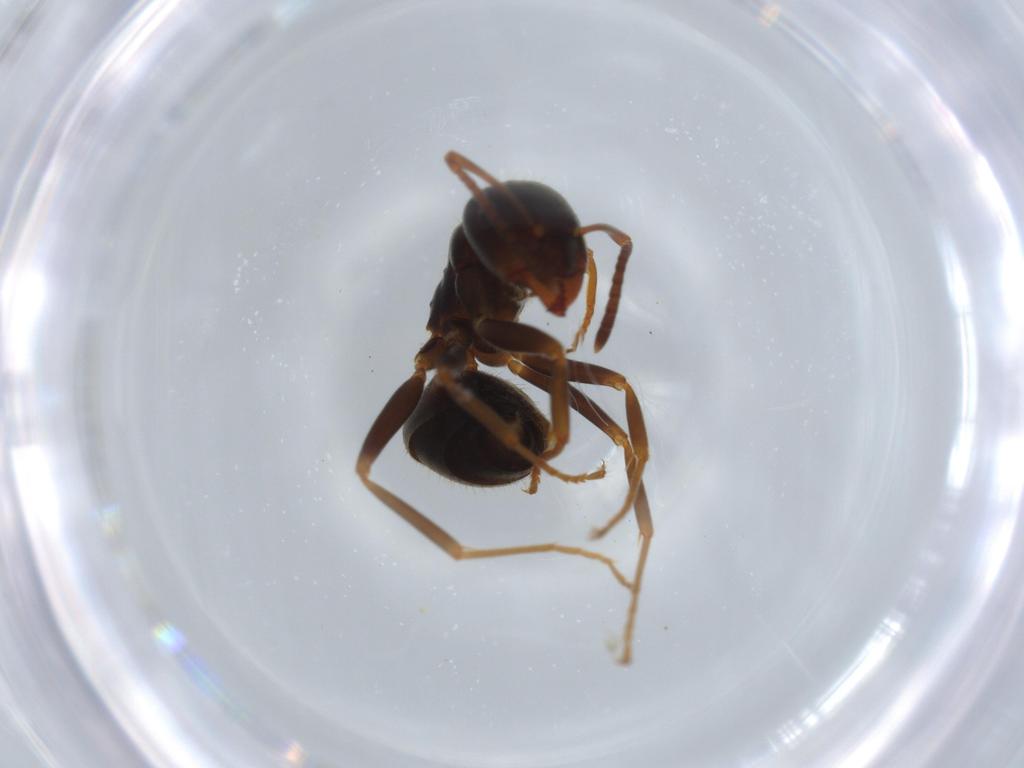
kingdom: Animalia
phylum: Arthropoda
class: Insecta
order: Hymenoptera
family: Formicidae
